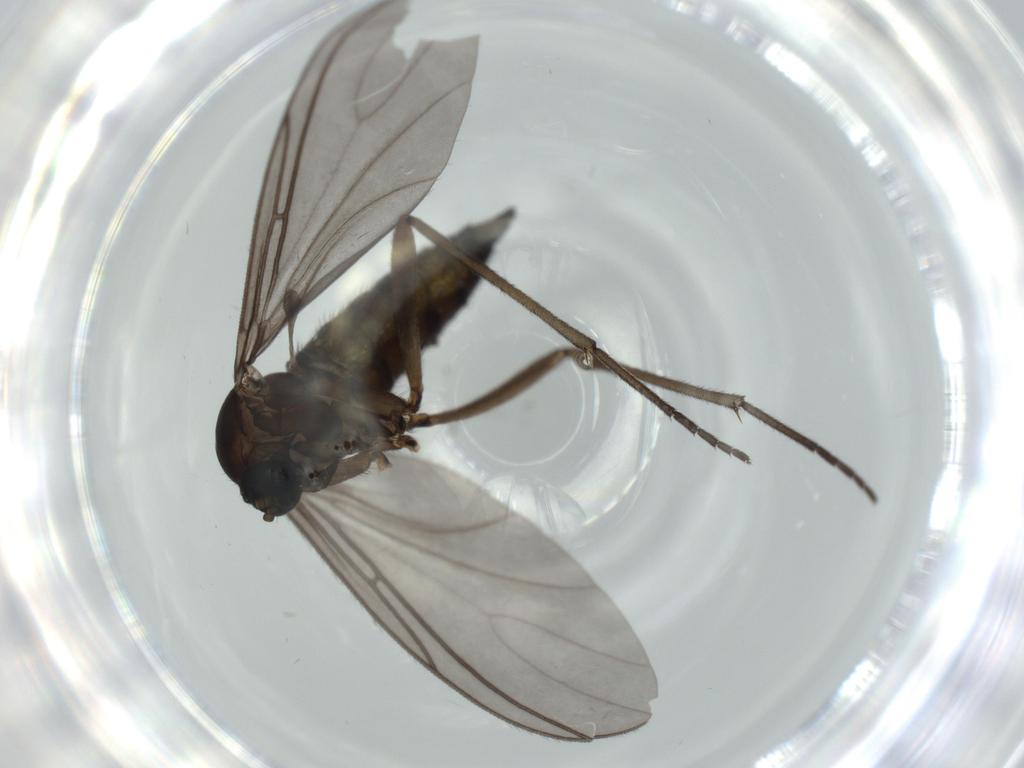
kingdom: Animalia
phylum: Arthropoda
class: Insecta
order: Diptera
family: Sciaridae
